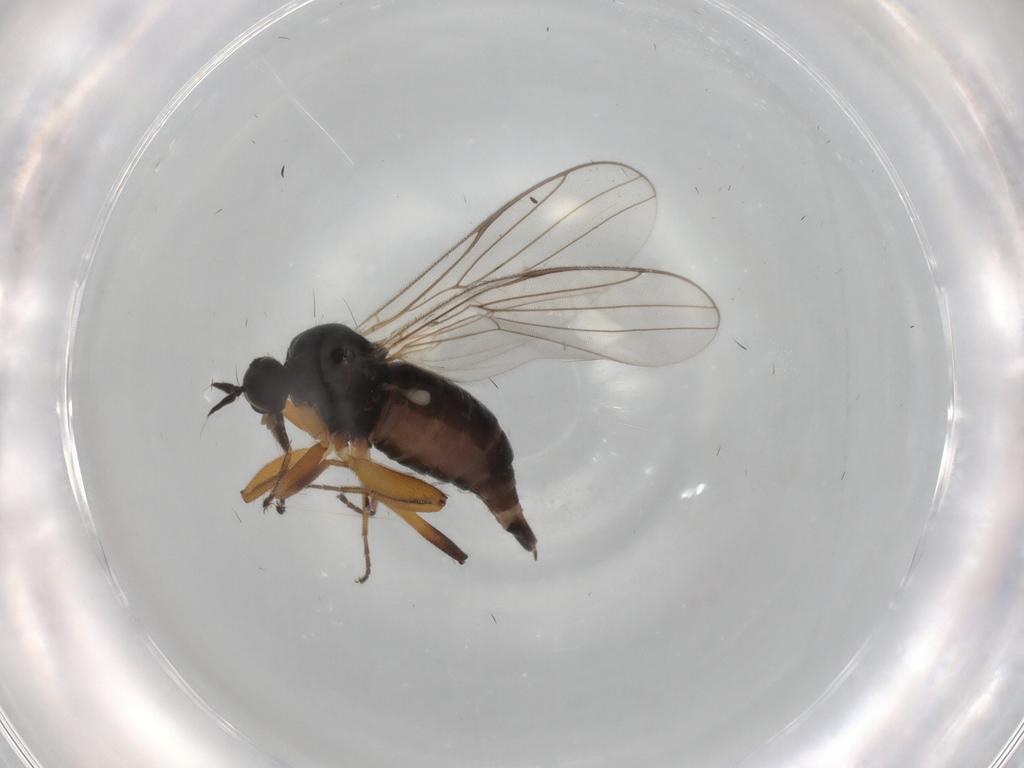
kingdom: Animalia
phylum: Arthropoda
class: Insecta
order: Diptera
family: Hybotidae
